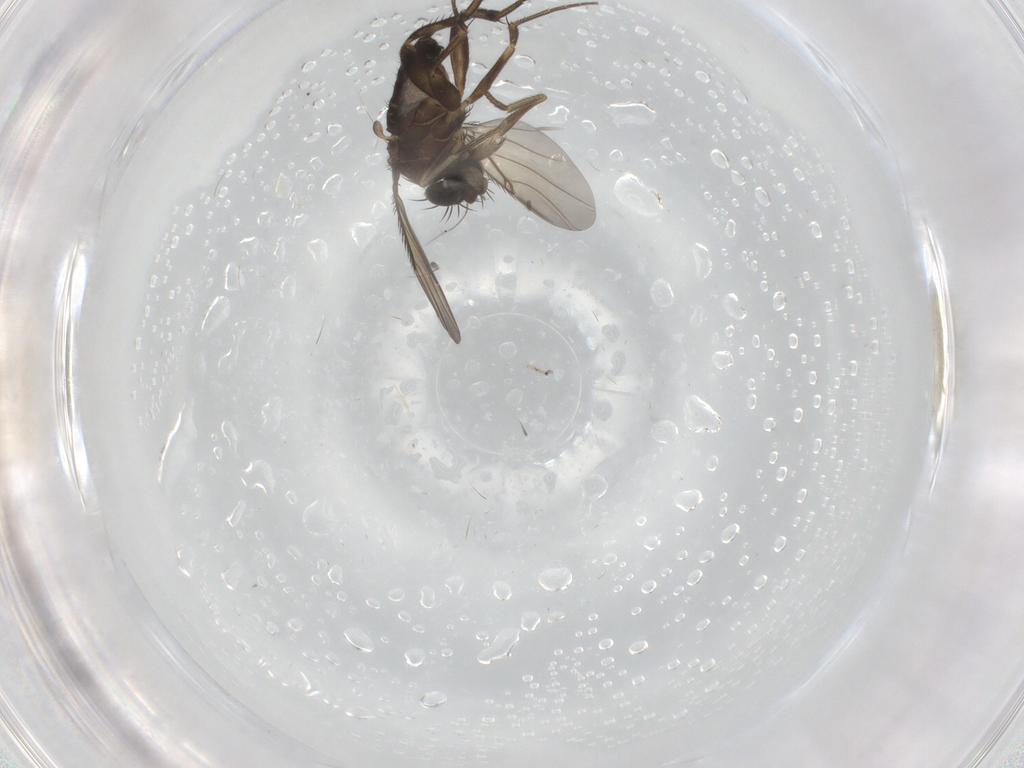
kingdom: Animalia
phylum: Arthropoda
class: Insecta
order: Diptera
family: Phoridae
